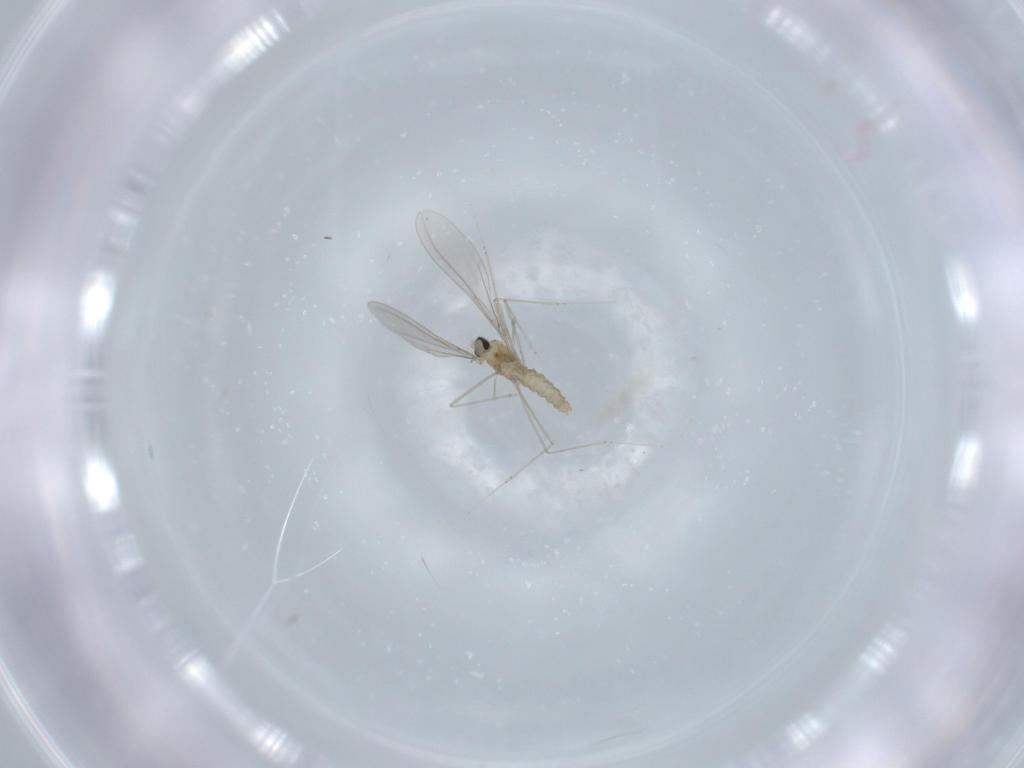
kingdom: Animalia
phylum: Arthropoda
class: Insecta
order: Diptera
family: Cecidomyiidae
